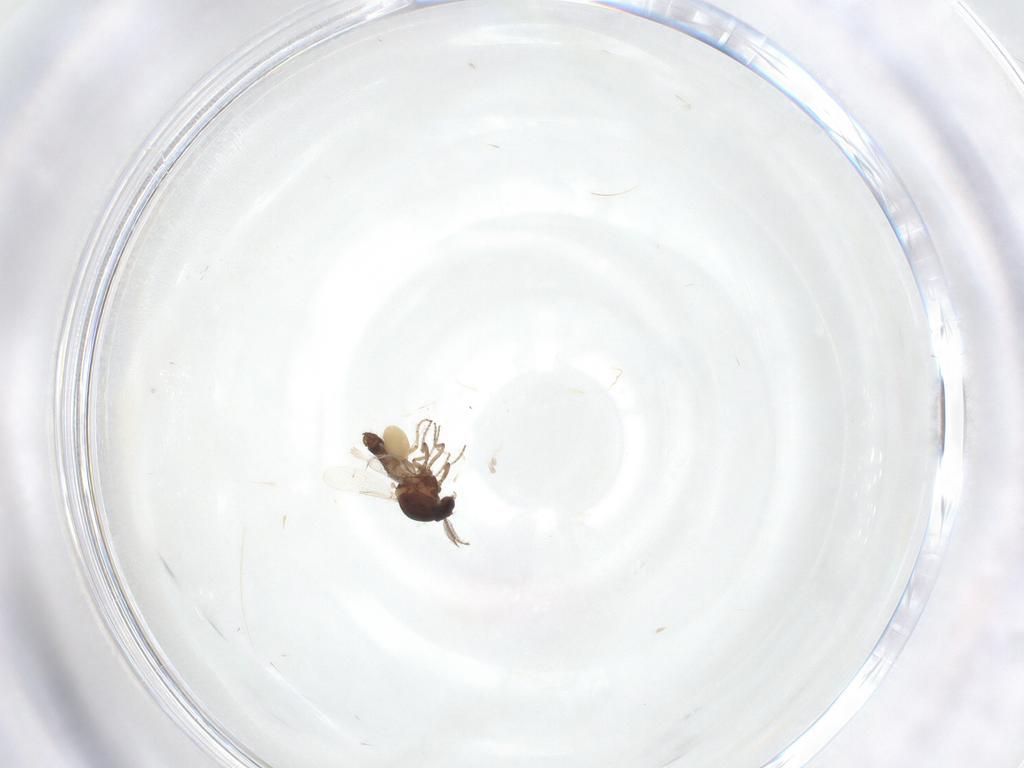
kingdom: Animalia
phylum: Arthropoda
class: Insecta
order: Diptera
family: Ceratopogonidae
